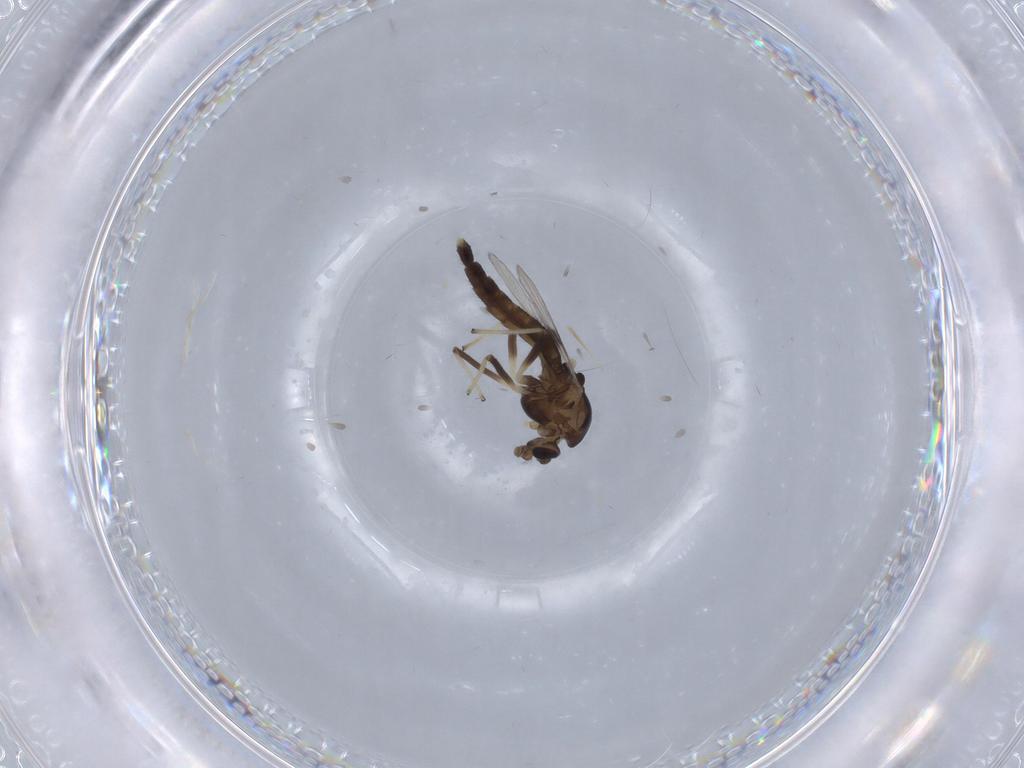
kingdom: Animalia
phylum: Arthropoda
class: Insecta
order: Diptera
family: Chironomidae
